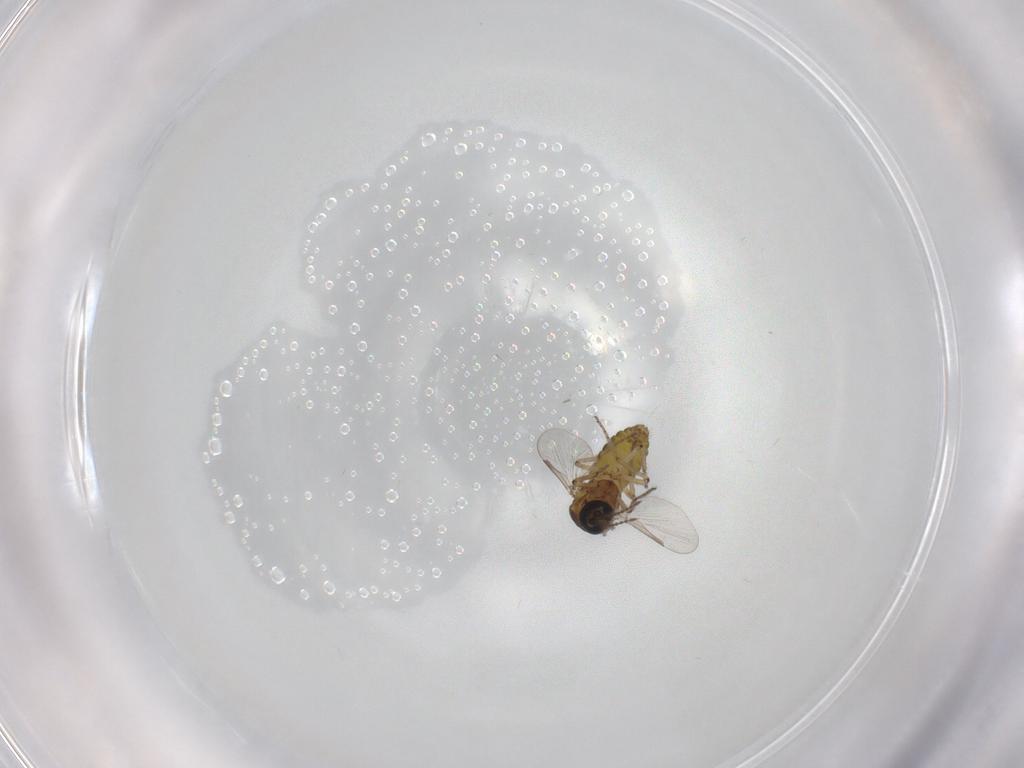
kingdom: Animalia
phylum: Arthropoda
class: Insecta
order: Diptera
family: Ceratopogonidae
